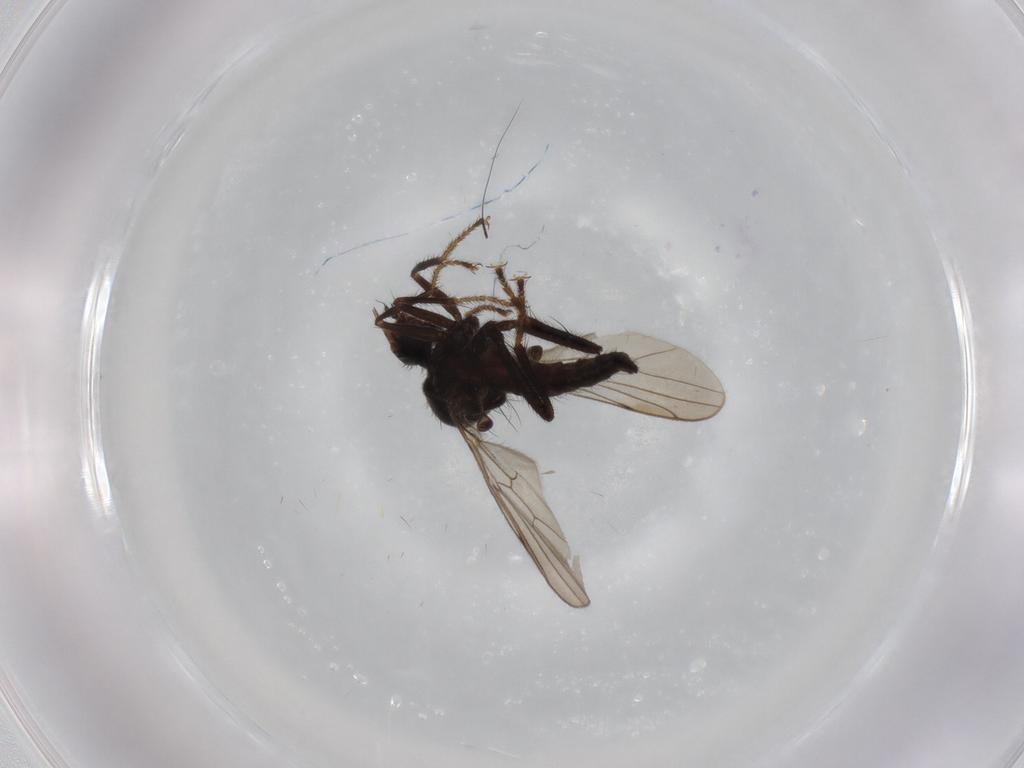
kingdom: Animalia
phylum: Arthropoda
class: Insecta
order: Diptera
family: Hybotidae
